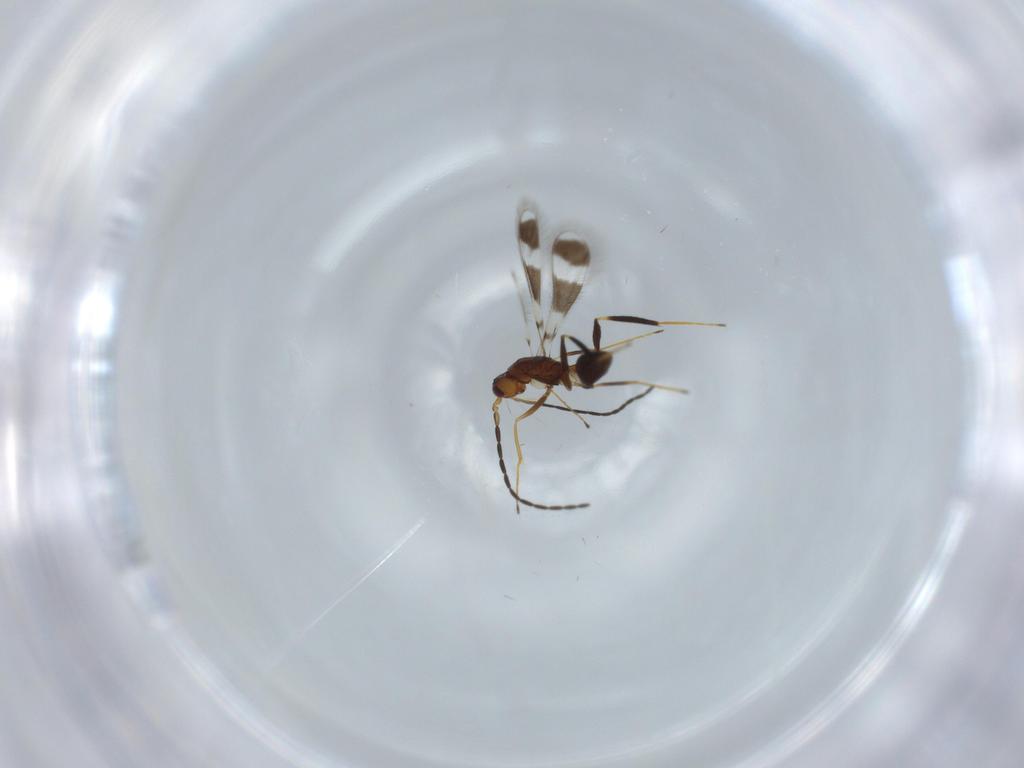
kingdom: Animalia
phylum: Arthropoda
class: Insecta
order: Hymenoptera
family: Mymaridae
